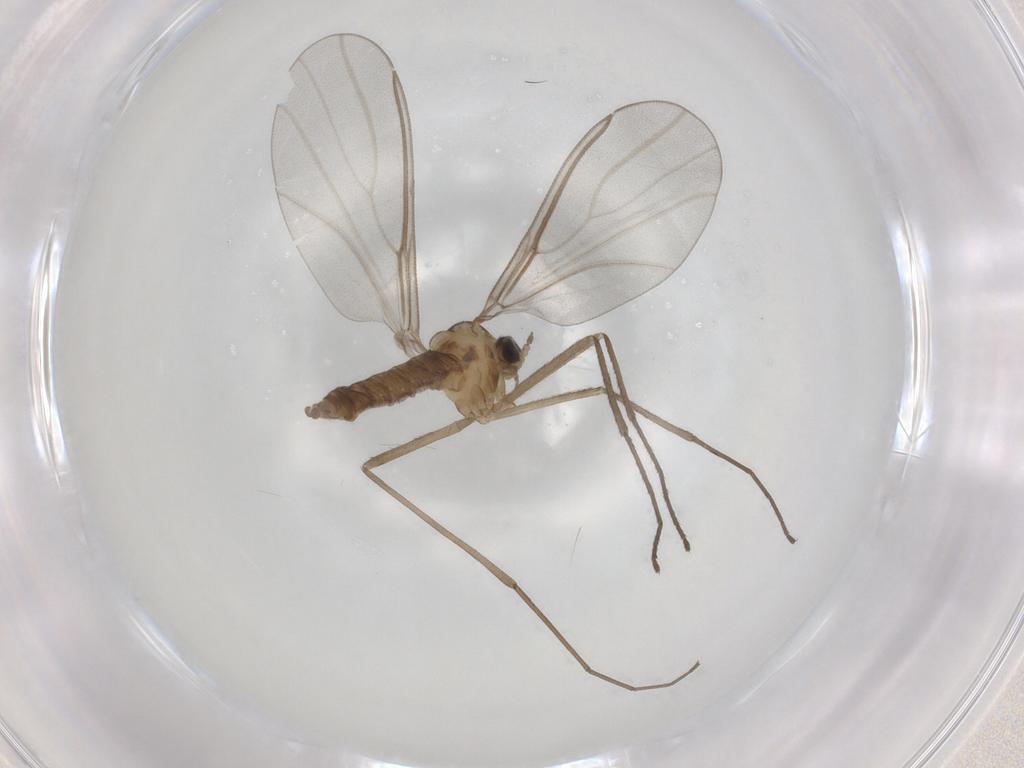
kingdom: Animalia
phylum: Arthropoda
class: Insecta
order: Diptera
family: Cecidomyiidae
